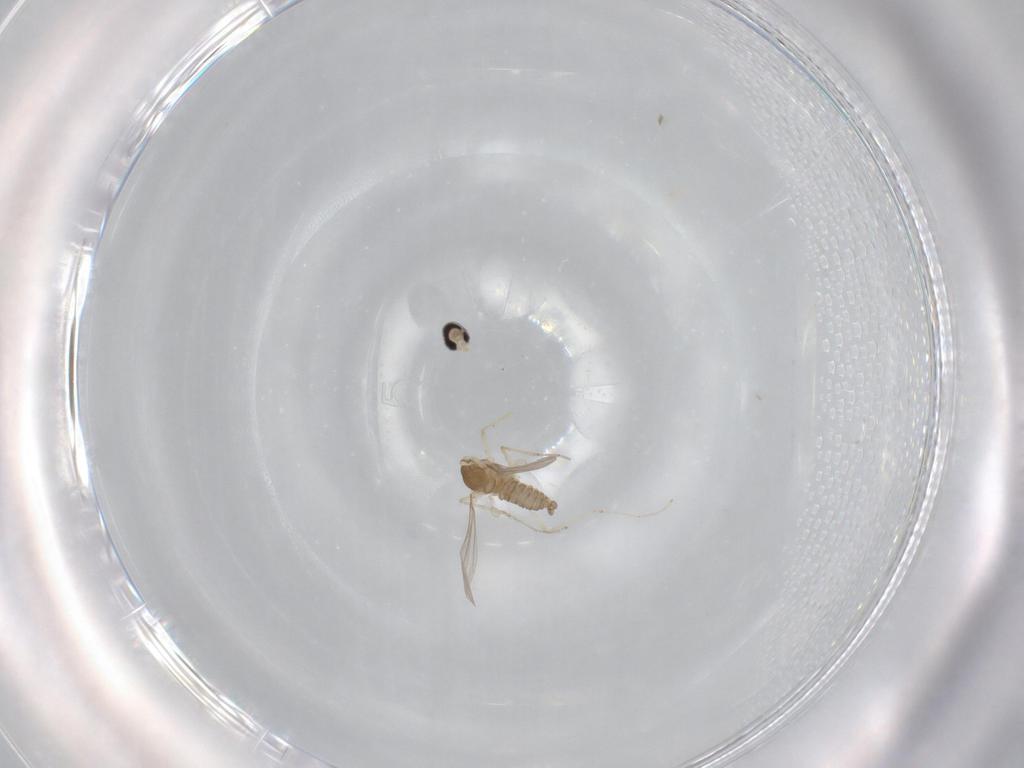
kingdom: Animalia
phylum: Arthropoda
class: Insecta
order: Diptera
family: Cecidomyiidae
